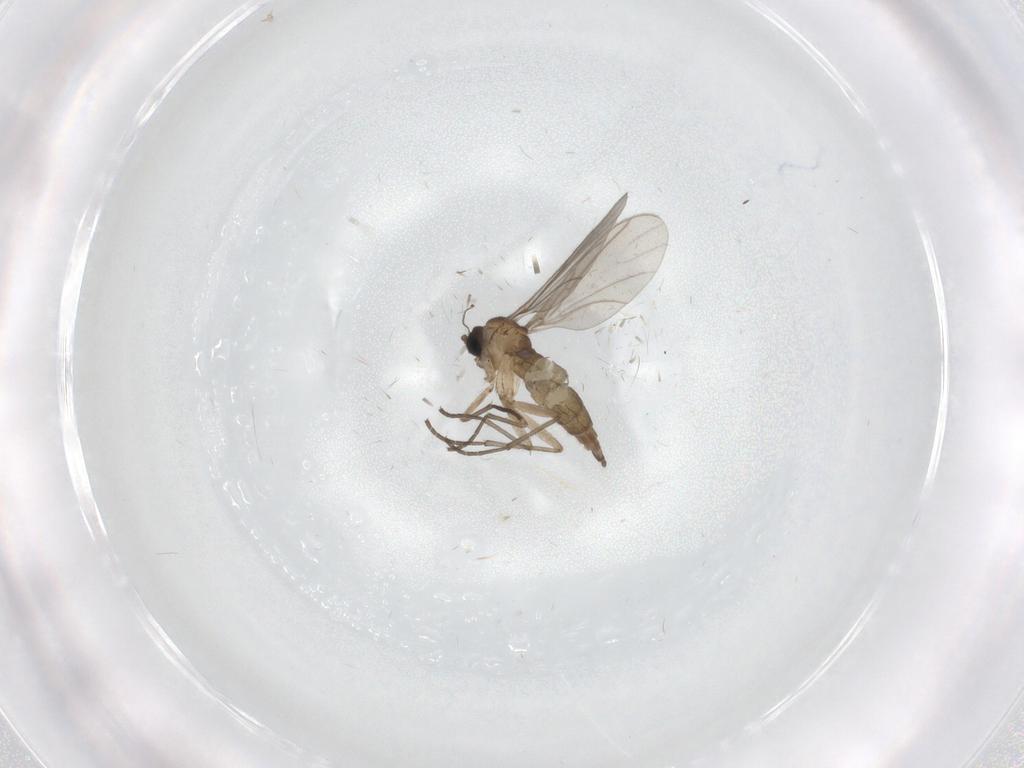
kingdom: Animalia
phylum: Arthropoda
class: Insecta
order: Diptera
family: Sciaridae
